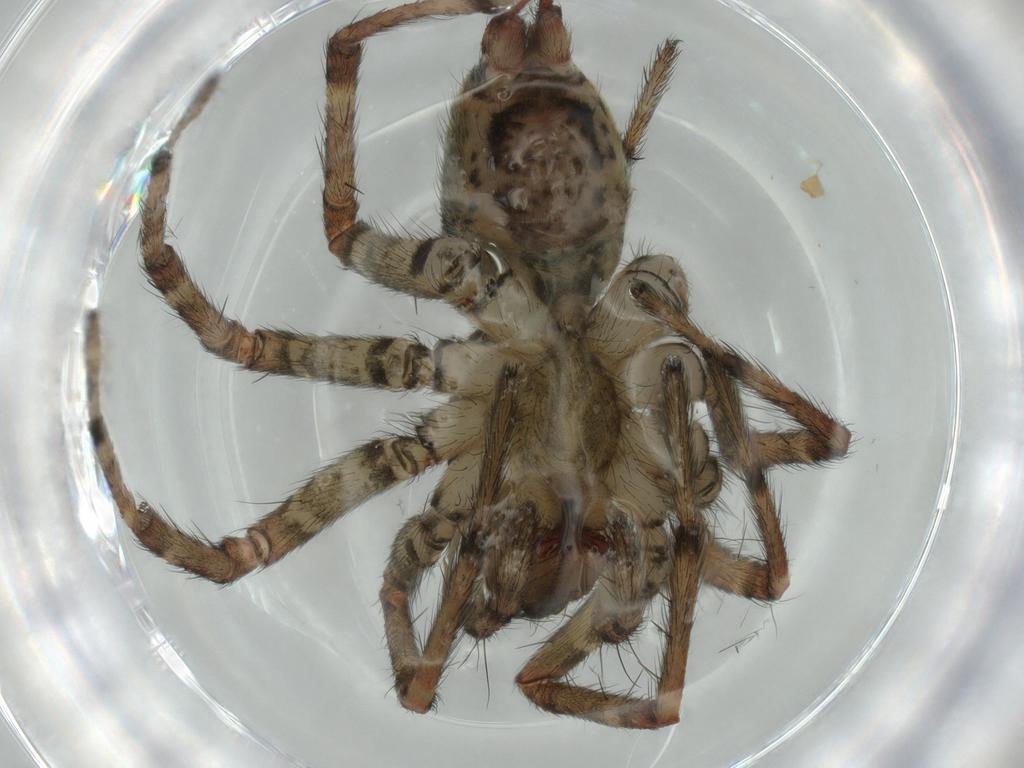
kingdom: Animalia
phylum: Arthropoda
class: Arachnida
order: Araneae
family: Agelenidae
